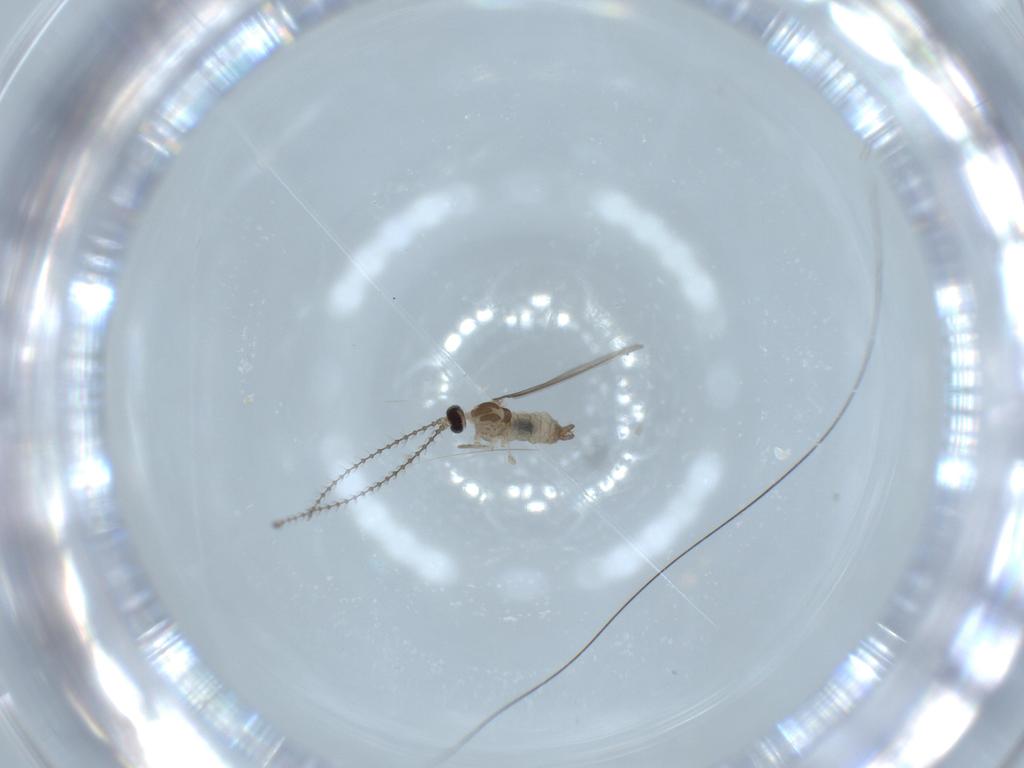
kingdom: Animalia
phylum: Arthropoda
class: Insecta
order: Diptera
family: Cecidomyiidae
